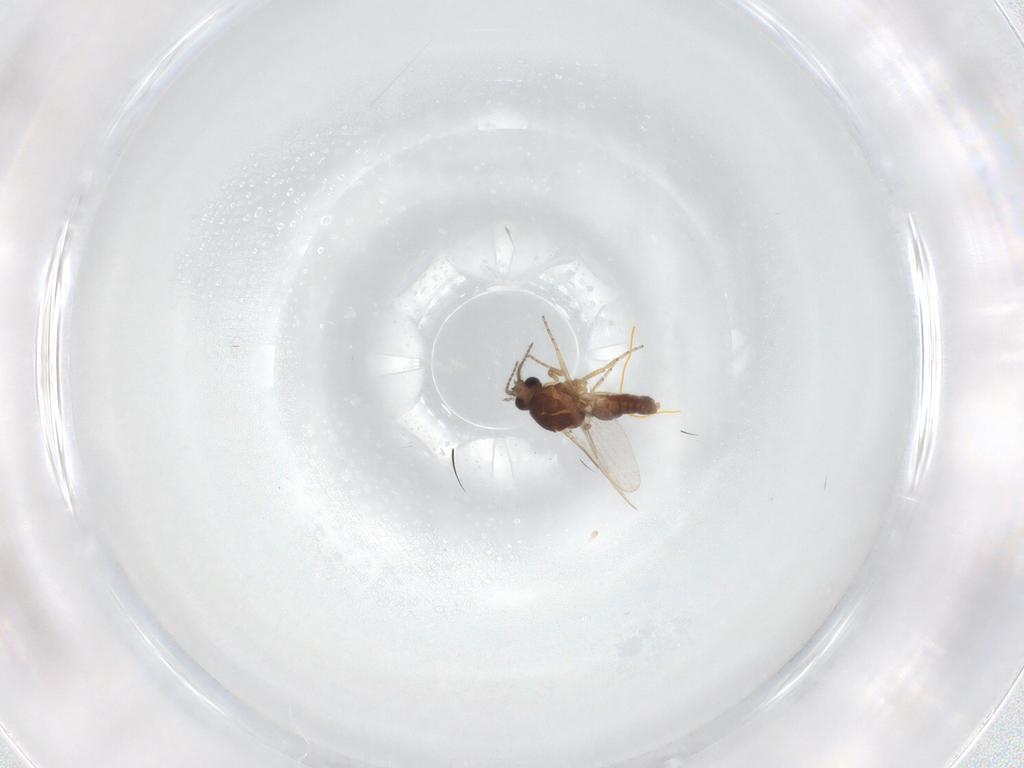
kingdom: Animalia
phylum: Arthropoda
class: Insecta
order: Diptera
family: Ceratopogonidae
